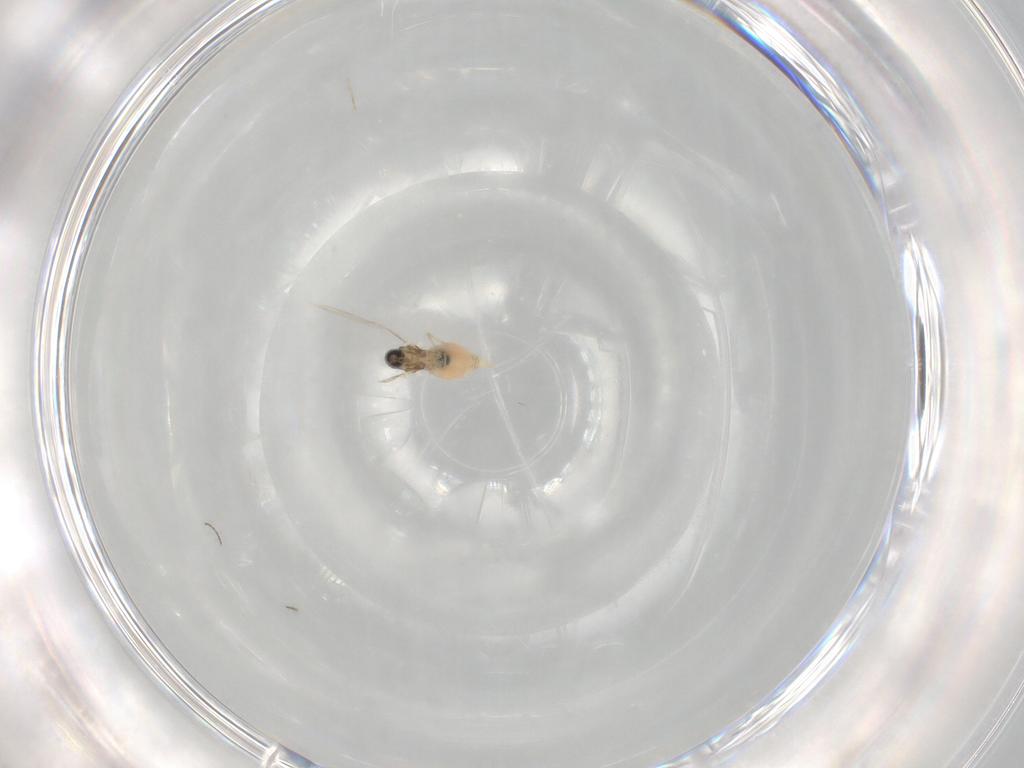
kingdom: Animalia
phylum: Arthropoda
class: Insecta
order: Diptera
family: Cecidomyiidae
